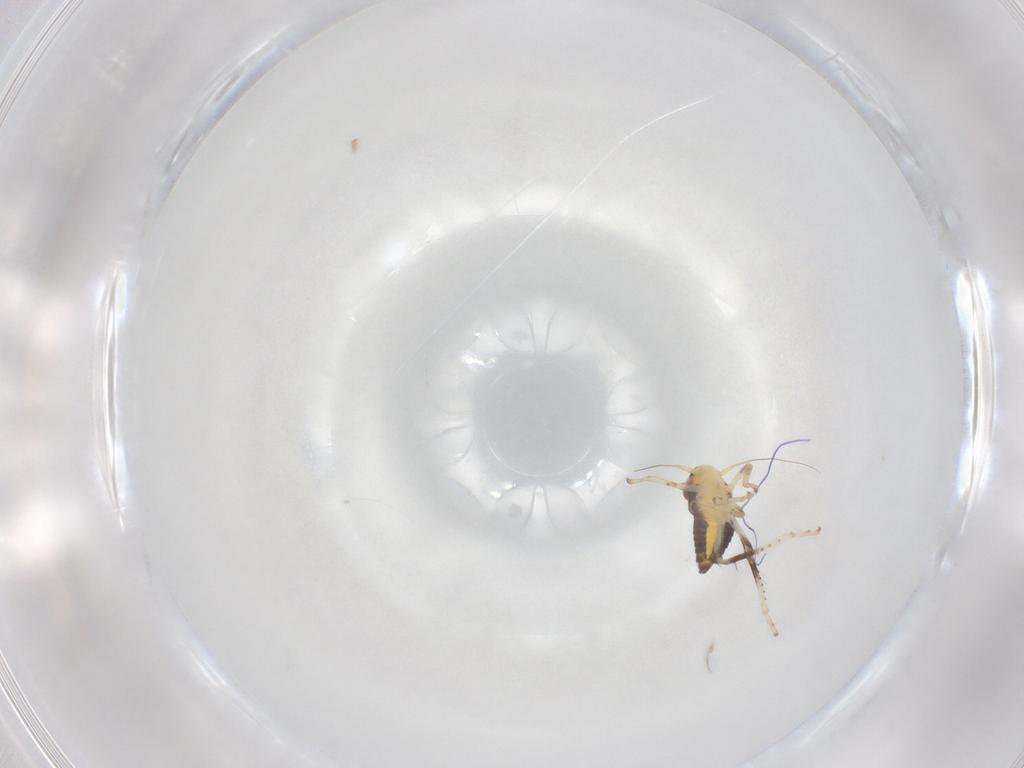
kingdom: Animalia
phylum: Arthropoda
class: Insecta
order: Hemiptera
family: Cicadellidae
